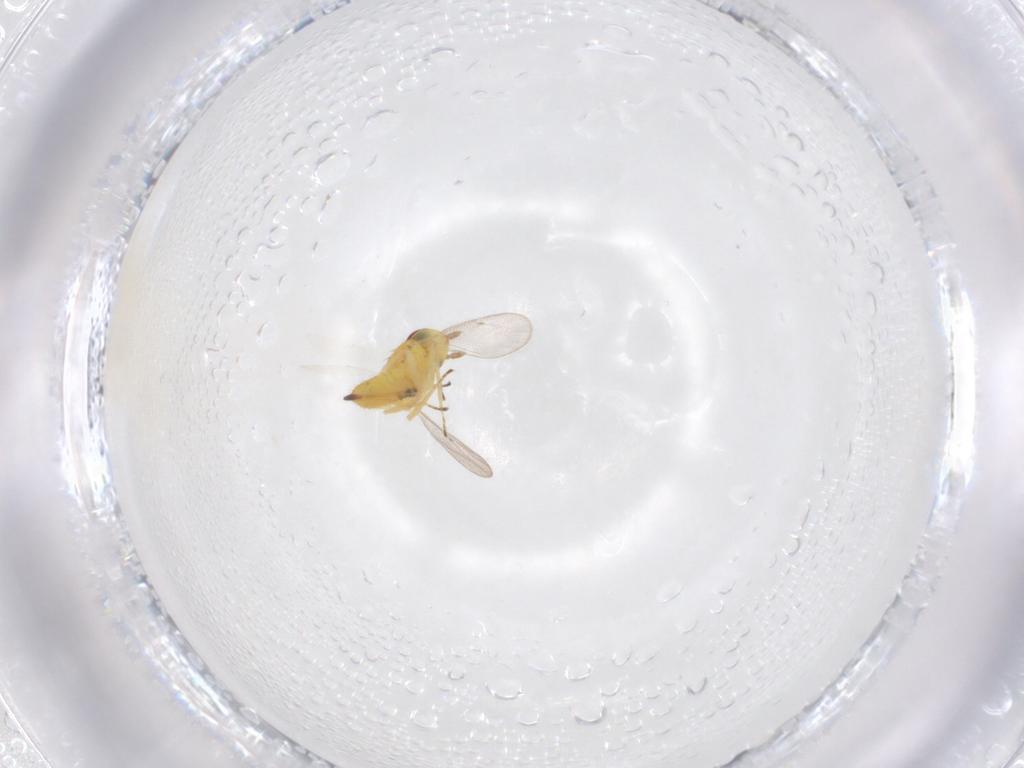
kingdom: Animalia
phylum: Arthropoda
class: Insecta
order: Hymenoptera
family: Eulophidae
